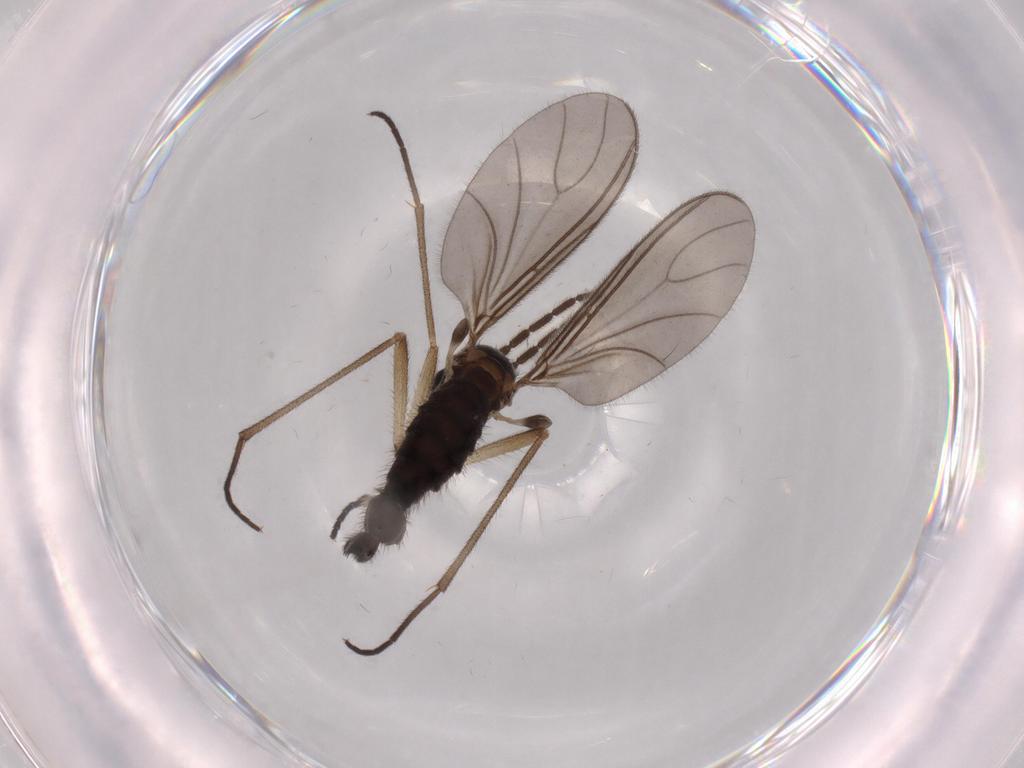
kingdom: Animalia
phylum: Arthropoda
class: Insecta
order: Diptera
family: Sciaridae
